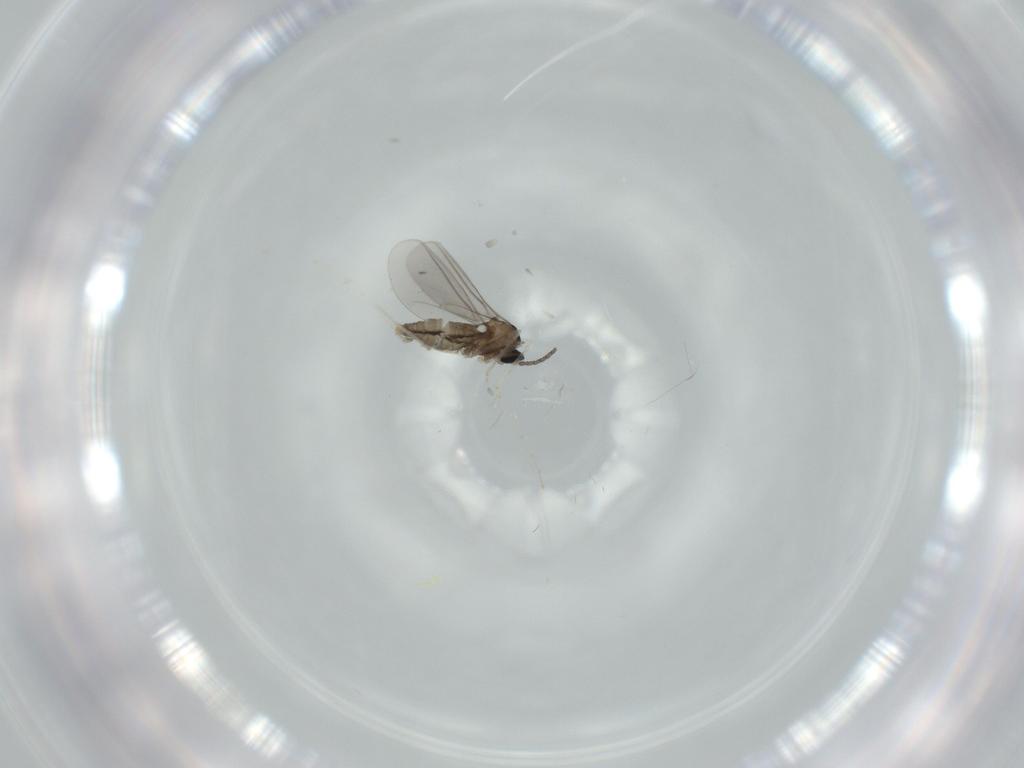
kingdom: Animalia
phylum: Arthropoda
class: Insecta
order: Diptera
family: Cecidomyiidae
